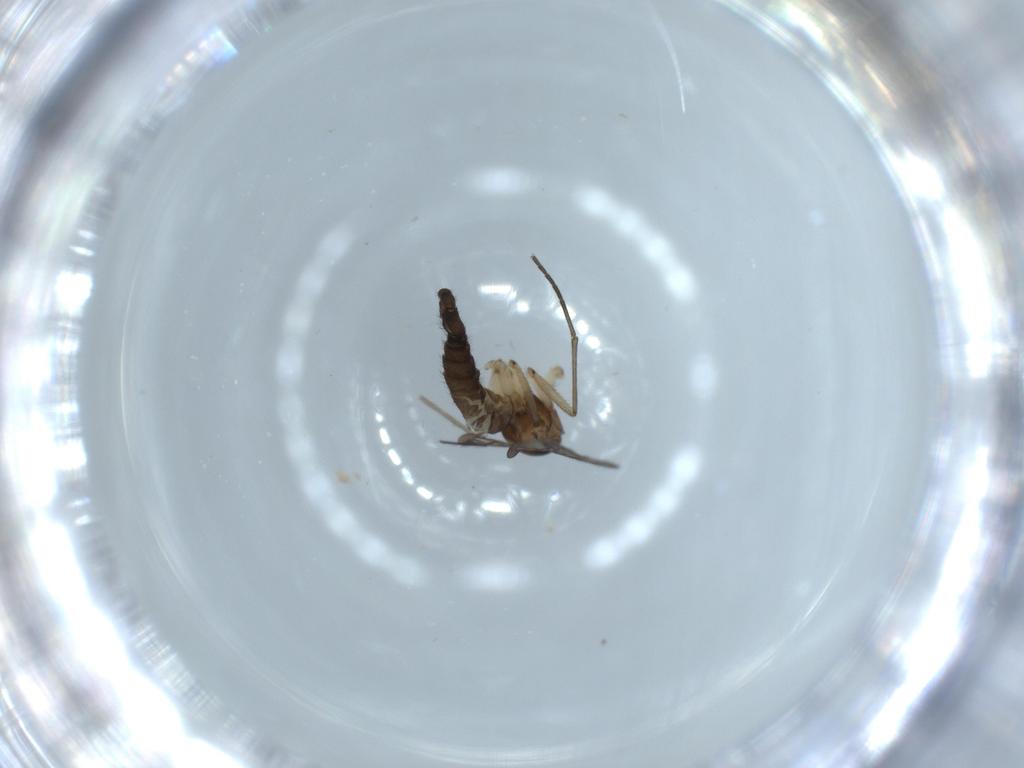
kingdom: Animalia
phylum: Arthropoda
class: Insecta
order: Diptera
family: Sciaridae
